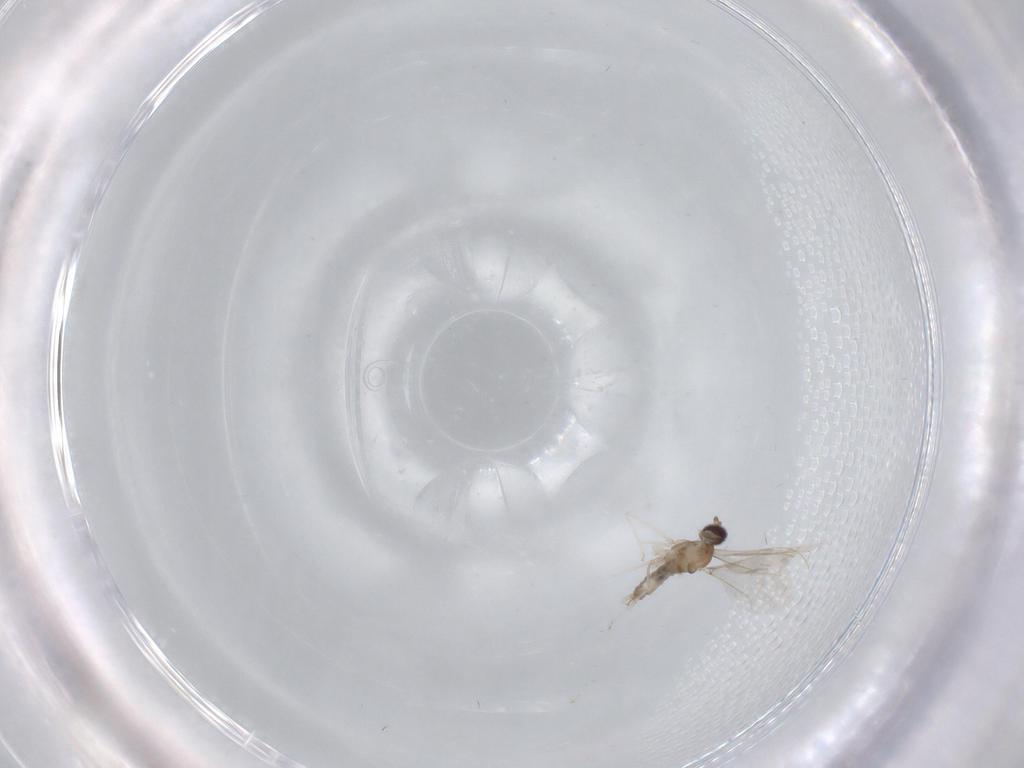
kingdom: Animalia
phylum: Arthropoda
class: Insecta
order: Diptera
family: Cecidomyiidae
